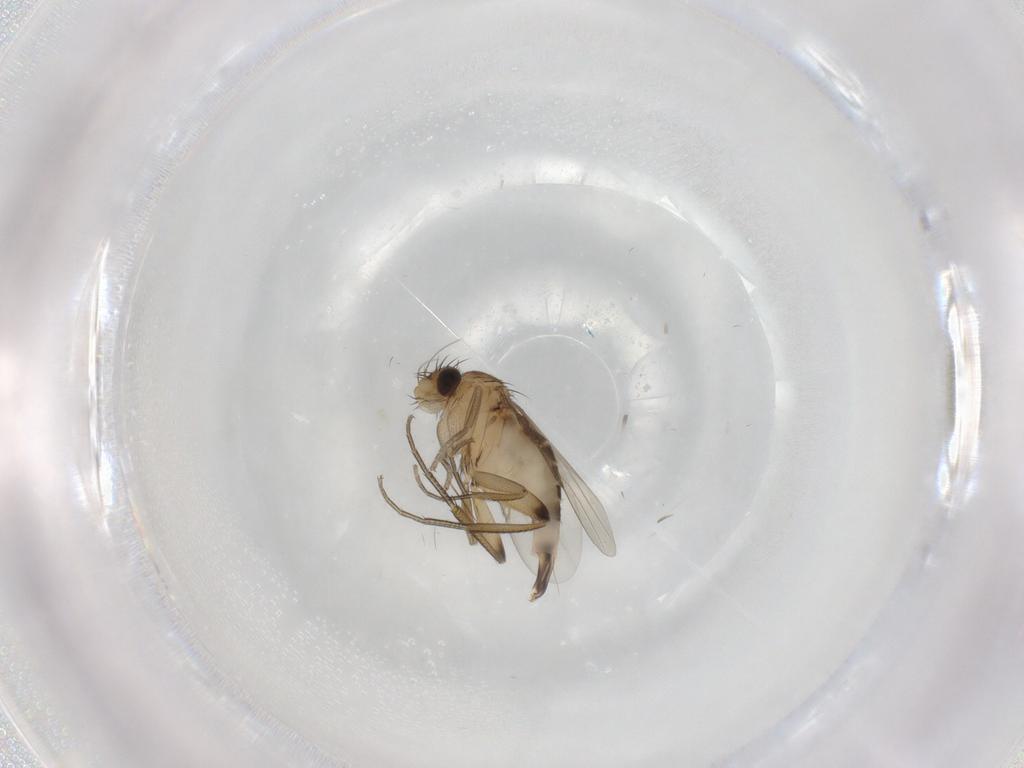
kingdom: Animalia
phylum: Arthropoda
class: Insecta
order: Diptera
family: Phoridae
